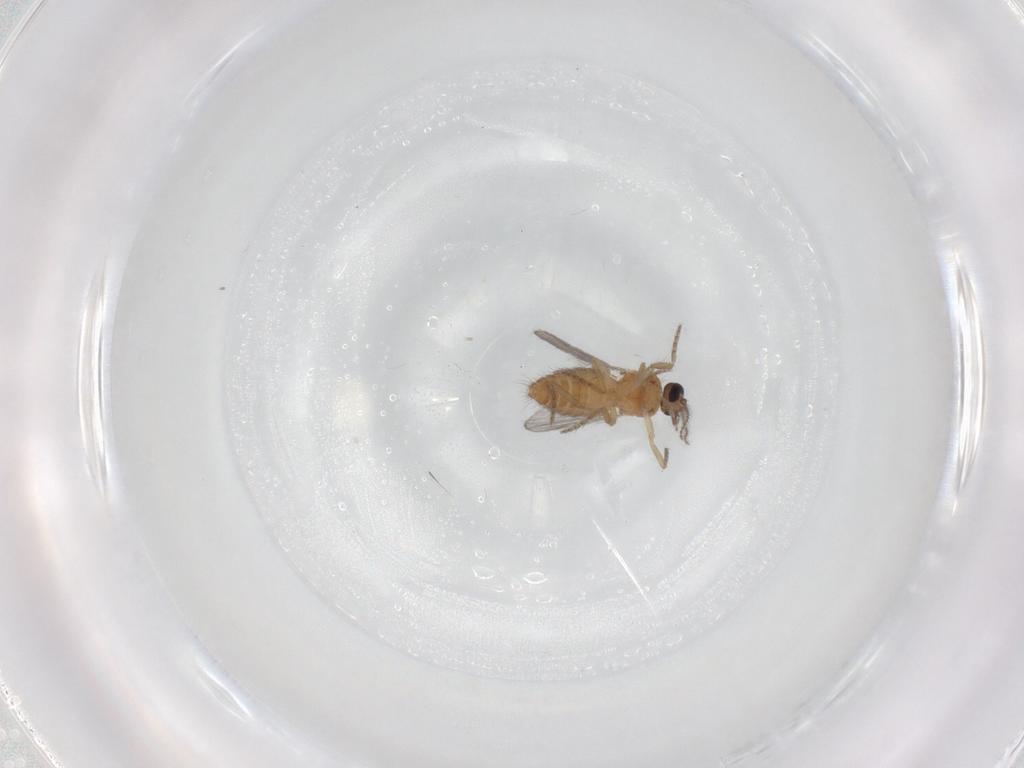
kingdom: Animalia
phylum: Arthropoda
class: Insecta
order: Diptera
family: Ceratopogonidae
